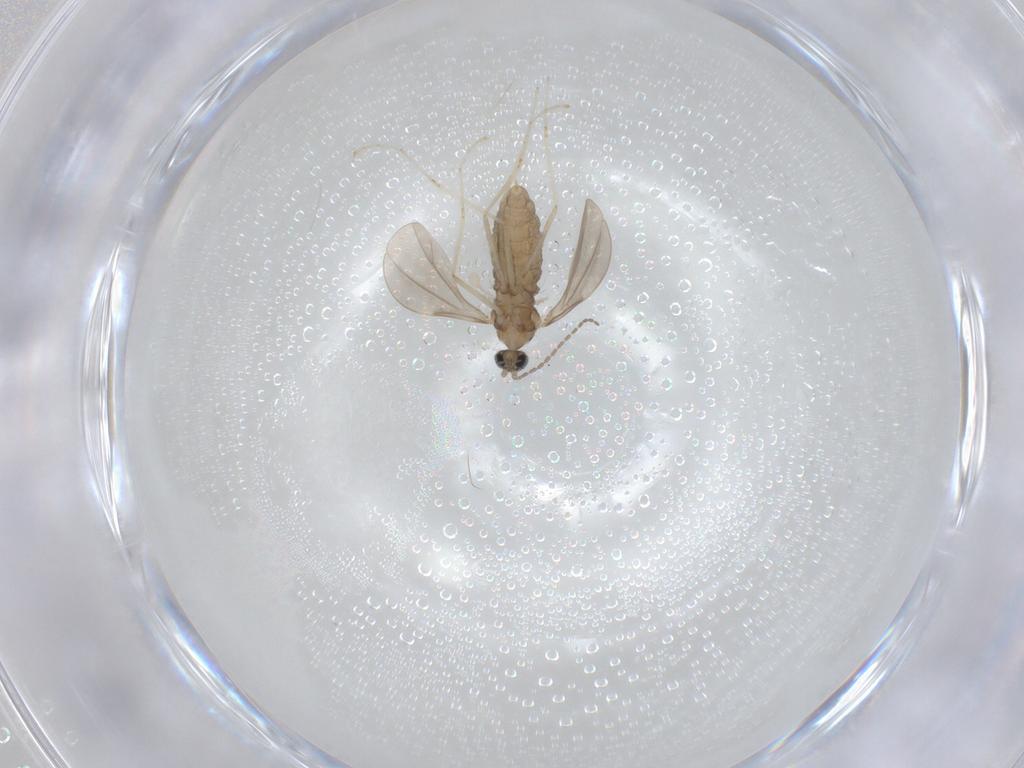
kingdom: Animalia
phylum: Arthropoda
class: Insecta
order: Diptera
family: Cecidomyiidae
